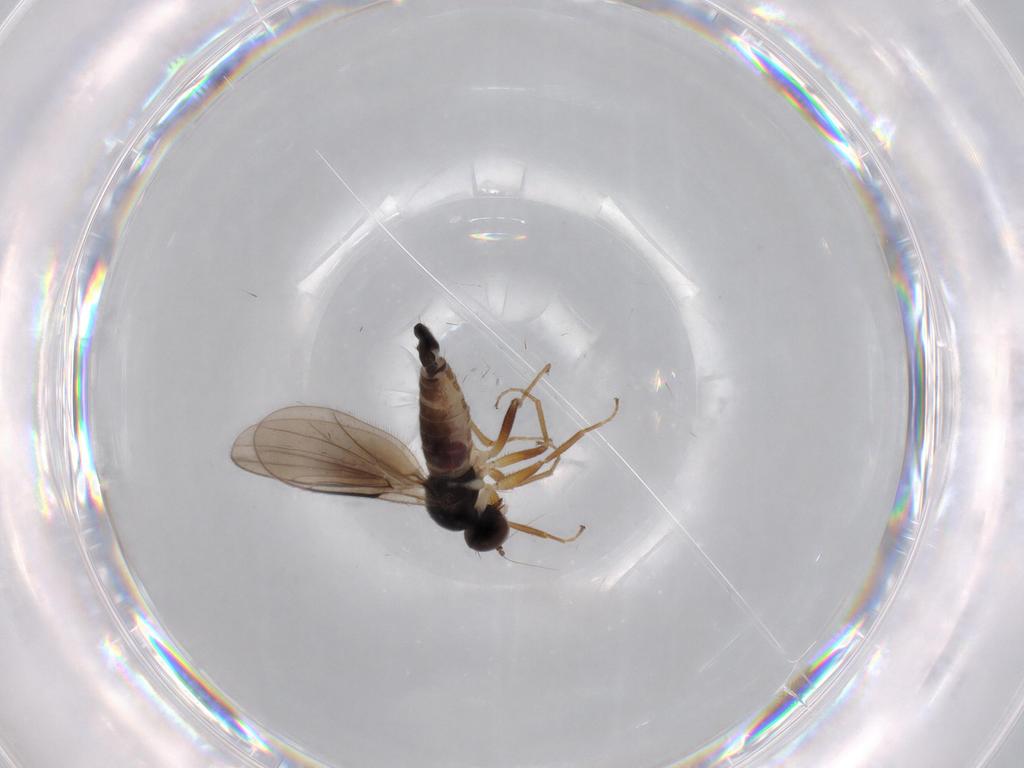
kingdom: Animalia
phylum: Arthropoda
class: Insecta
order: Diptera
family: Hybotidae
